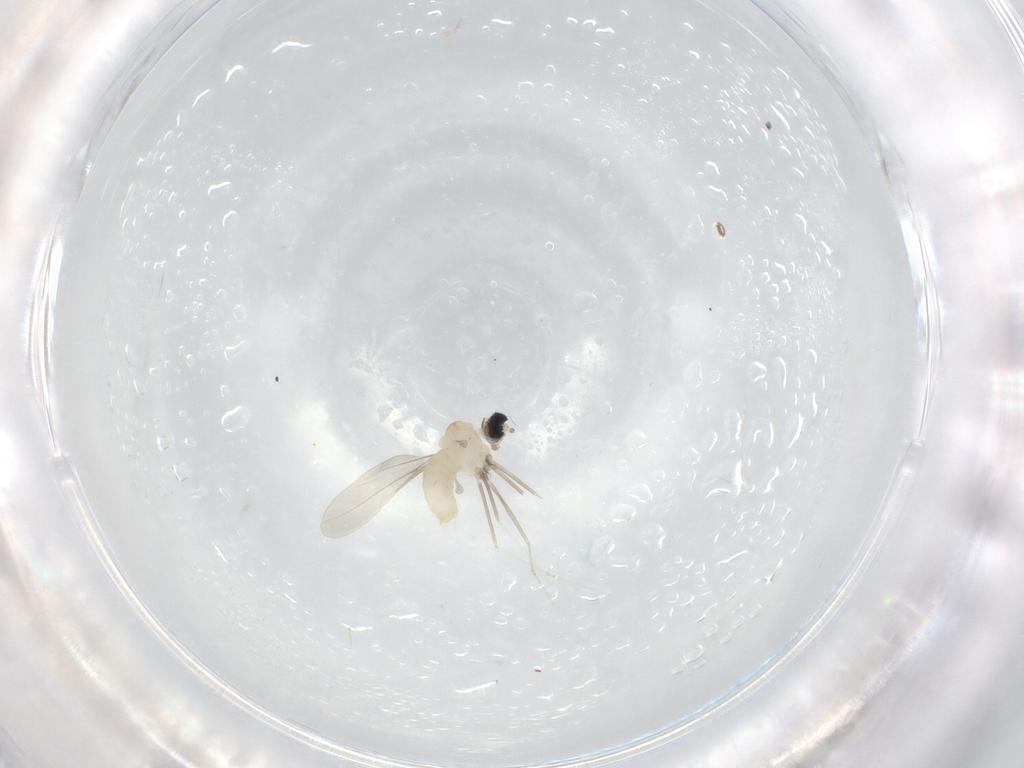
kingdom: Animalia
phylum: Arthropoda
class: Insecta
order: Diptera
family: Cecidomyiidae
